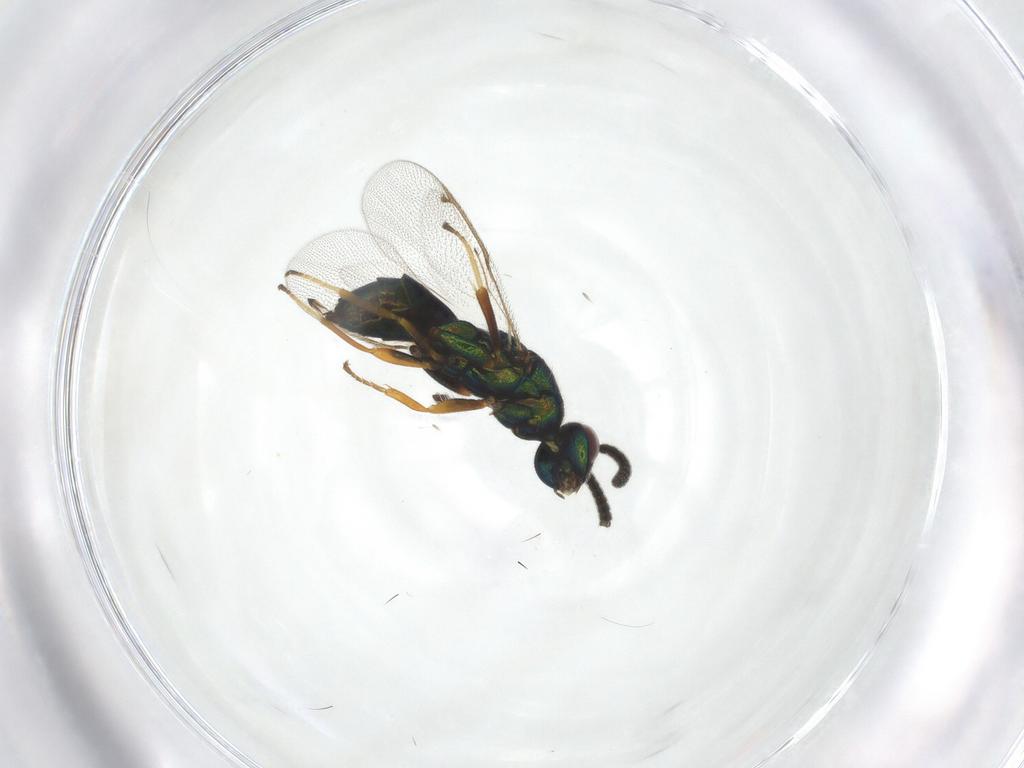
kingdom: Animalia
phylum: Arthropoda
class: Insecta
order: Hymenoptera
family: Torymidae
